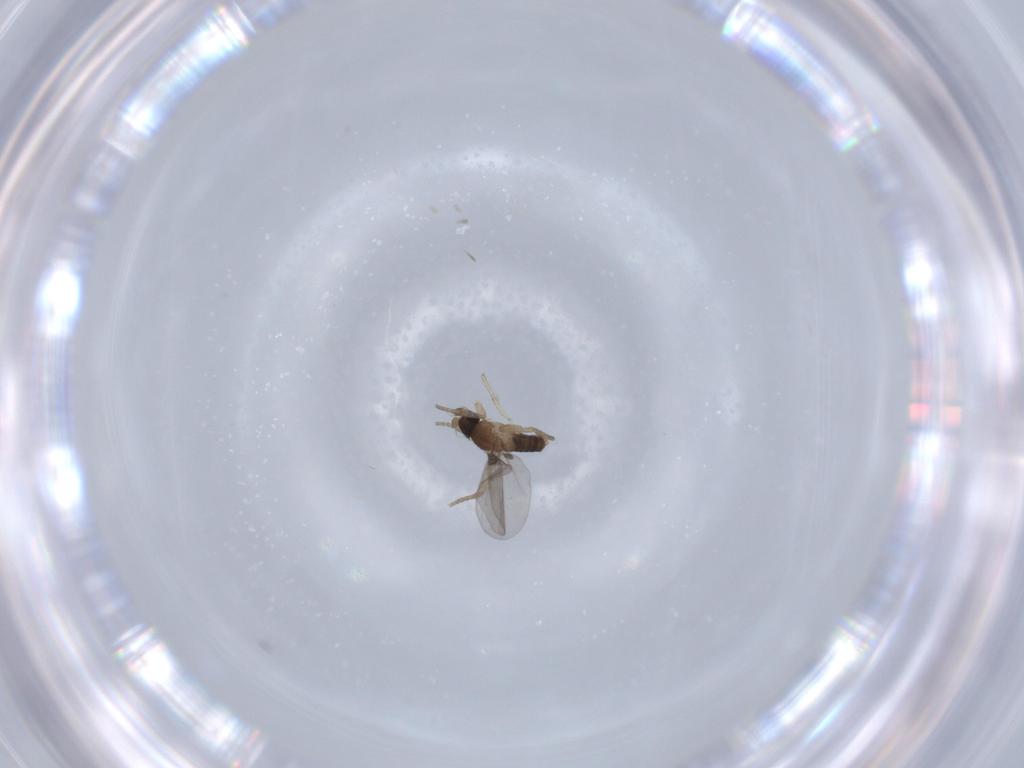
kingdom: Animalia
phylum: Arthropoda
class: Insecta
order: Diptera
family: Phoridae
